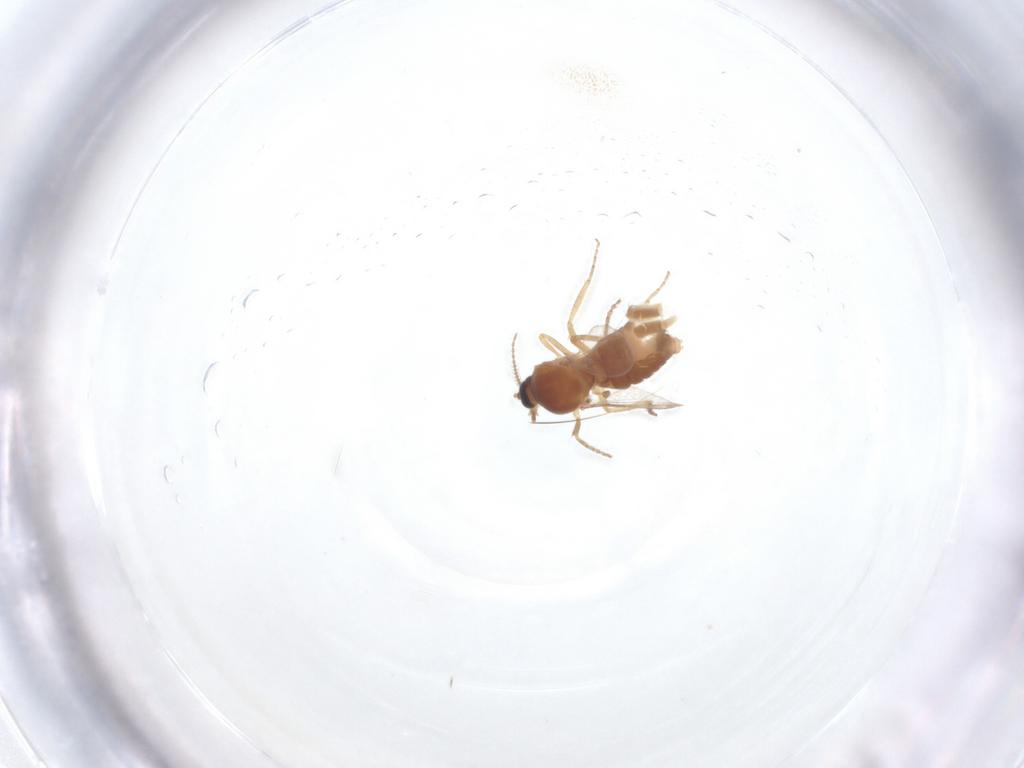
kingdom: Animalia
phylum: Arthropoda
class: Insecta
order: Diptera
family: Ceratopogonidae
